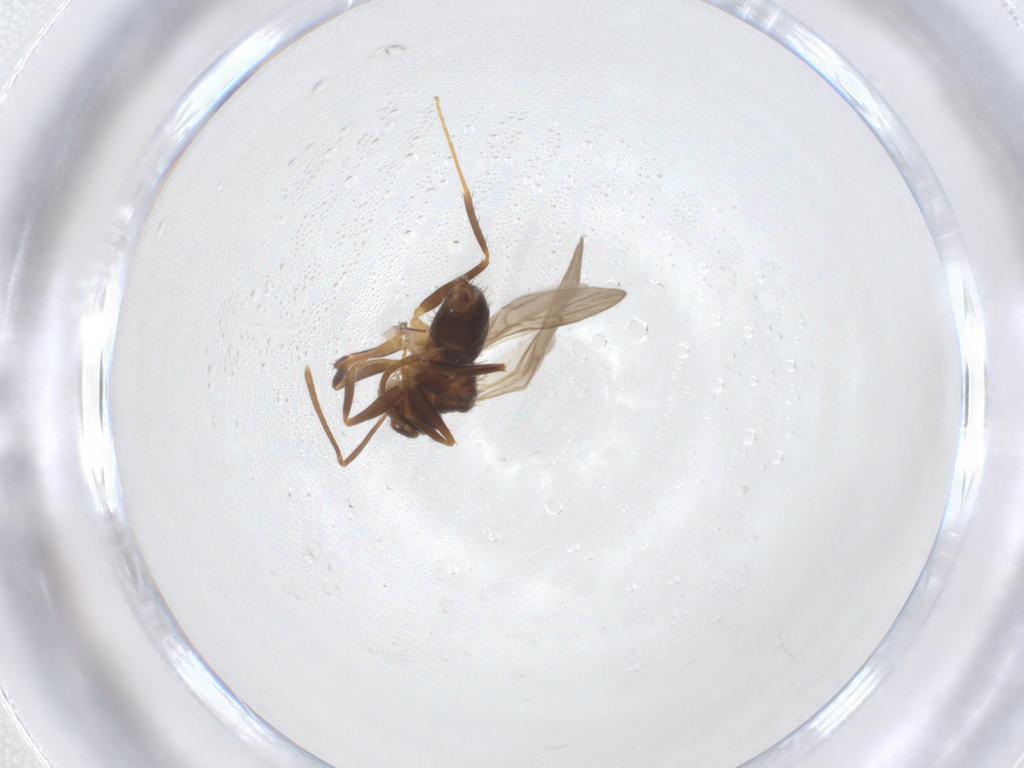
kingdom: Animalia
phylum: Arthropoda
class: Insecta
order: Hymenoptera
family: Formicidae
